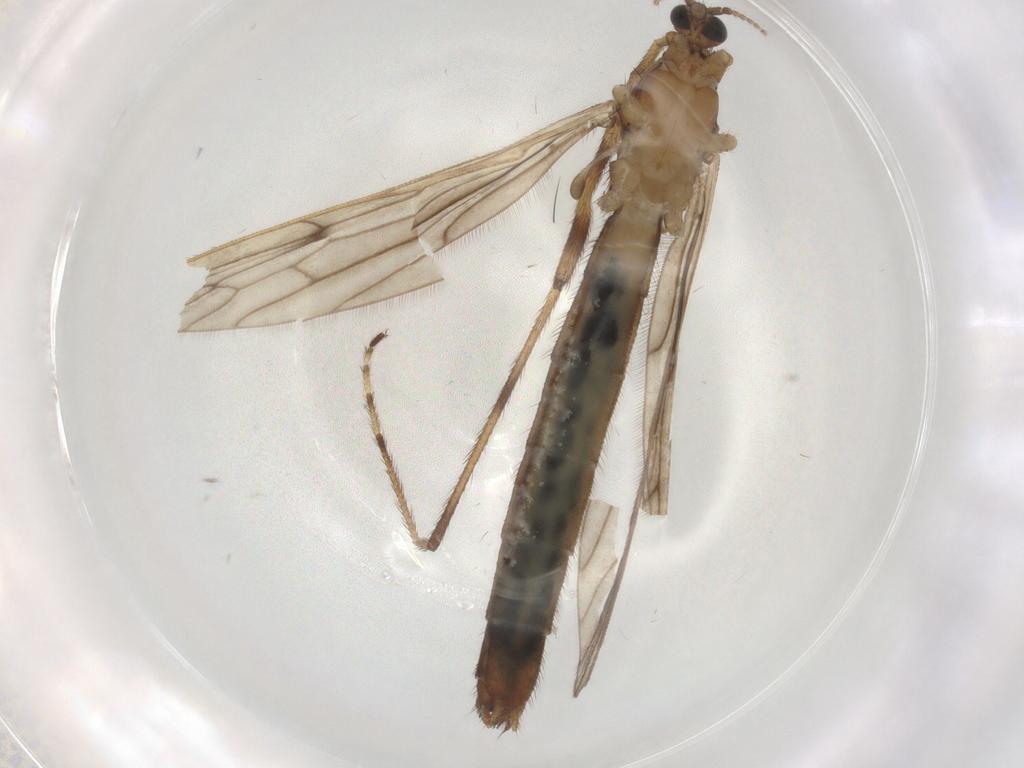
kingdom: Animalia
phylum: Arthropoda
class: Insecta
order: Diptera
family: Limoniidae
